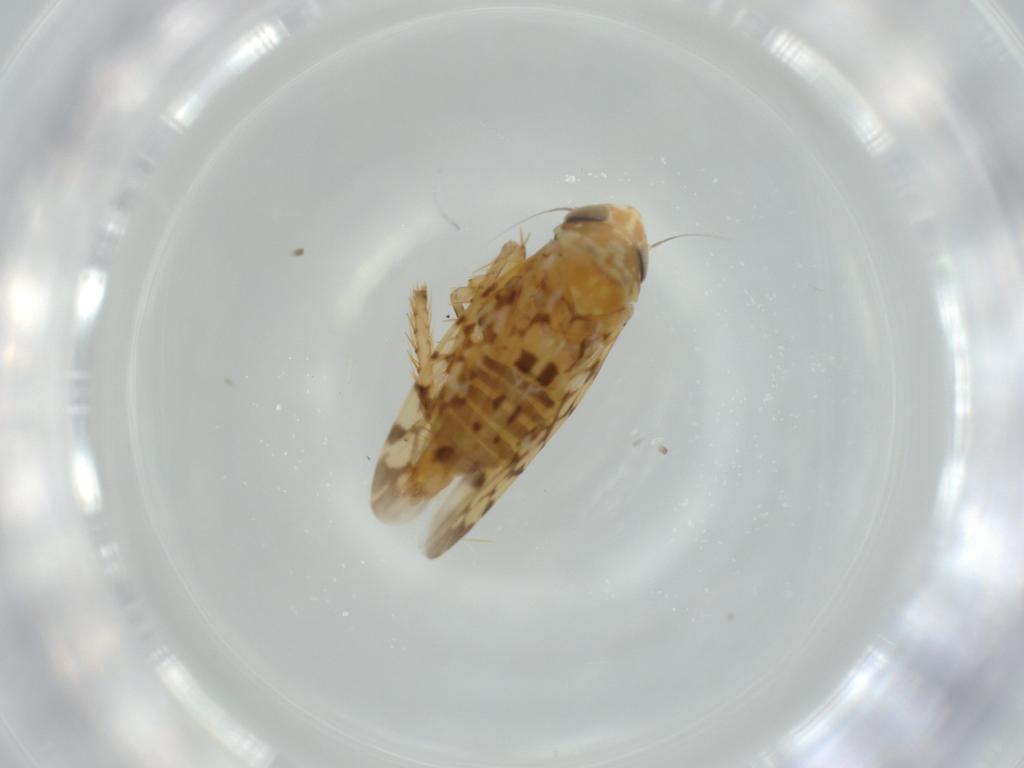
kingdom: Animalia
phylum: Arthropoda
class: Insecta
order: Hemiptera
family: Cicadellidae
